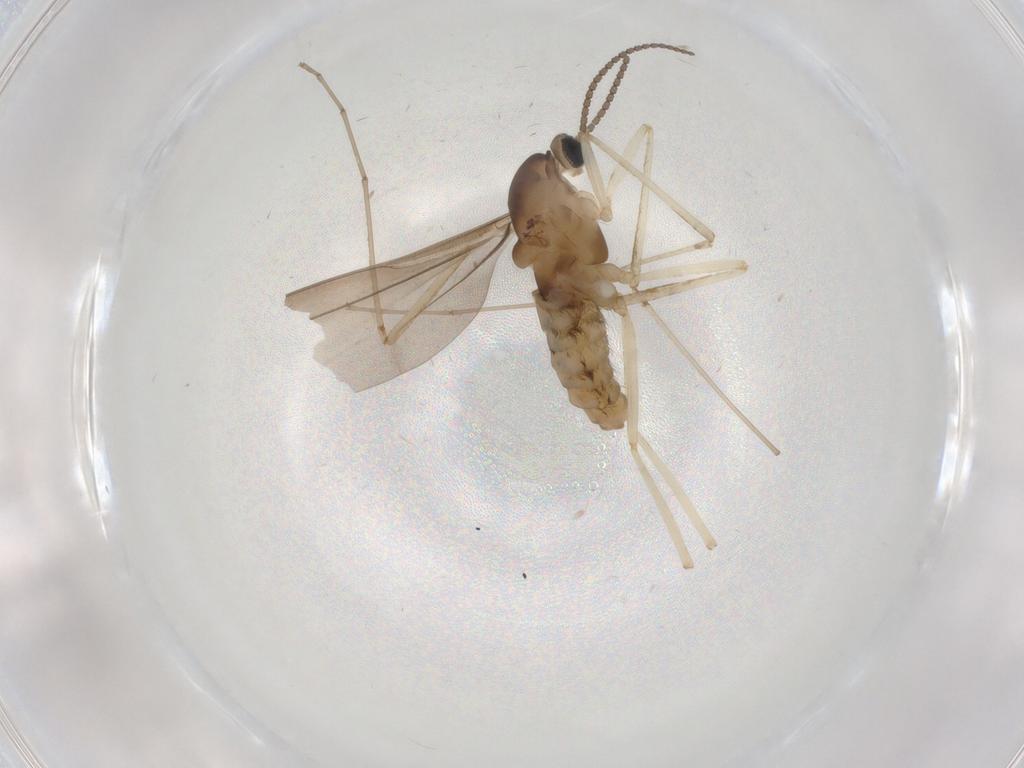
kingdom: Animalia
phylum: Arthropoda
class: Insecta
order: Diptera
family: Cecidomyiidae
